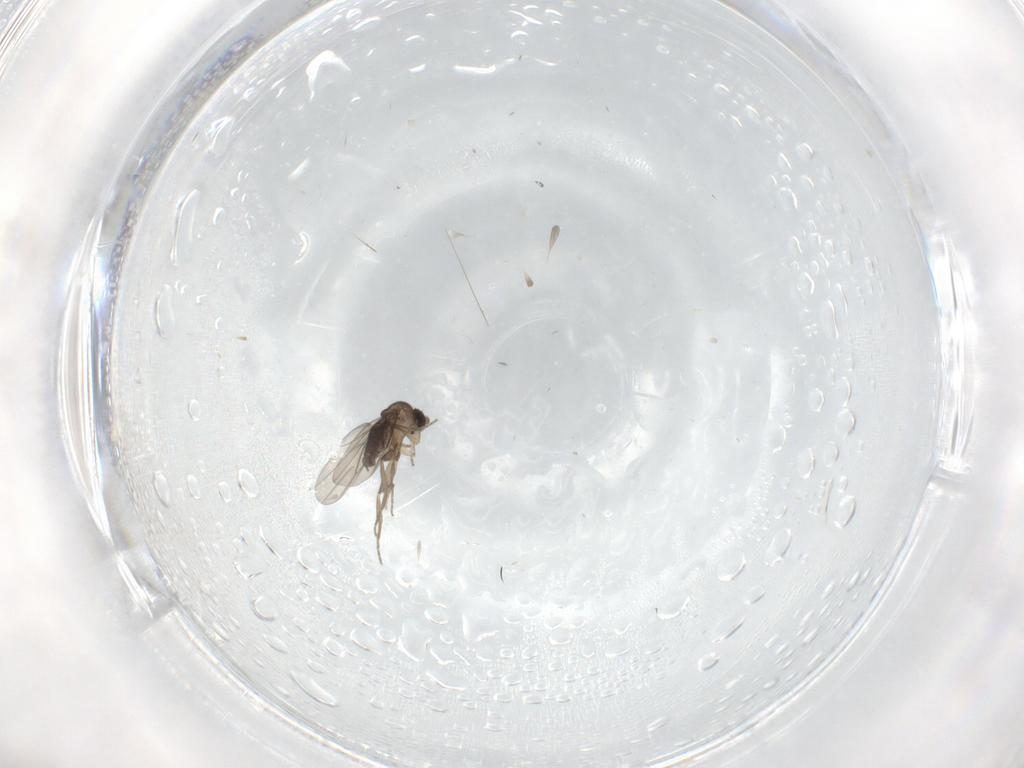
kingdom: Animalia
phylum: Arthropoda
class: Insecta
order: Diptera
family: Phoridae
